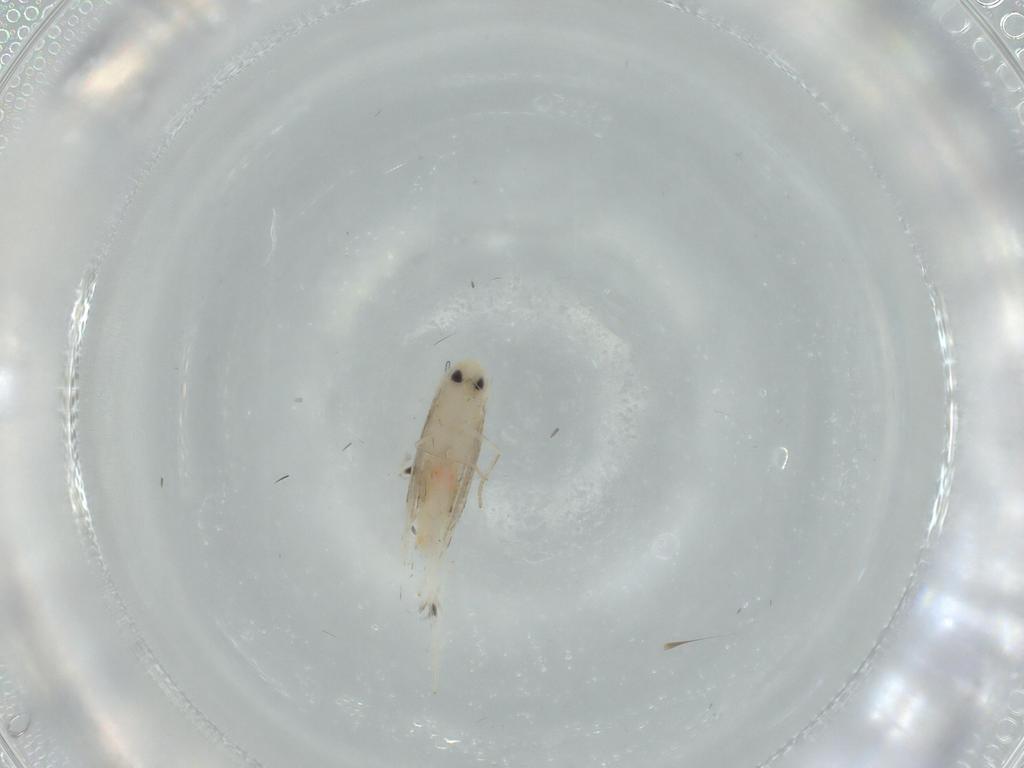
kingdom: Animalia
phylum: Arthropoda
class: Insecta
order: Lepidoptera
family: Gracillariidae
